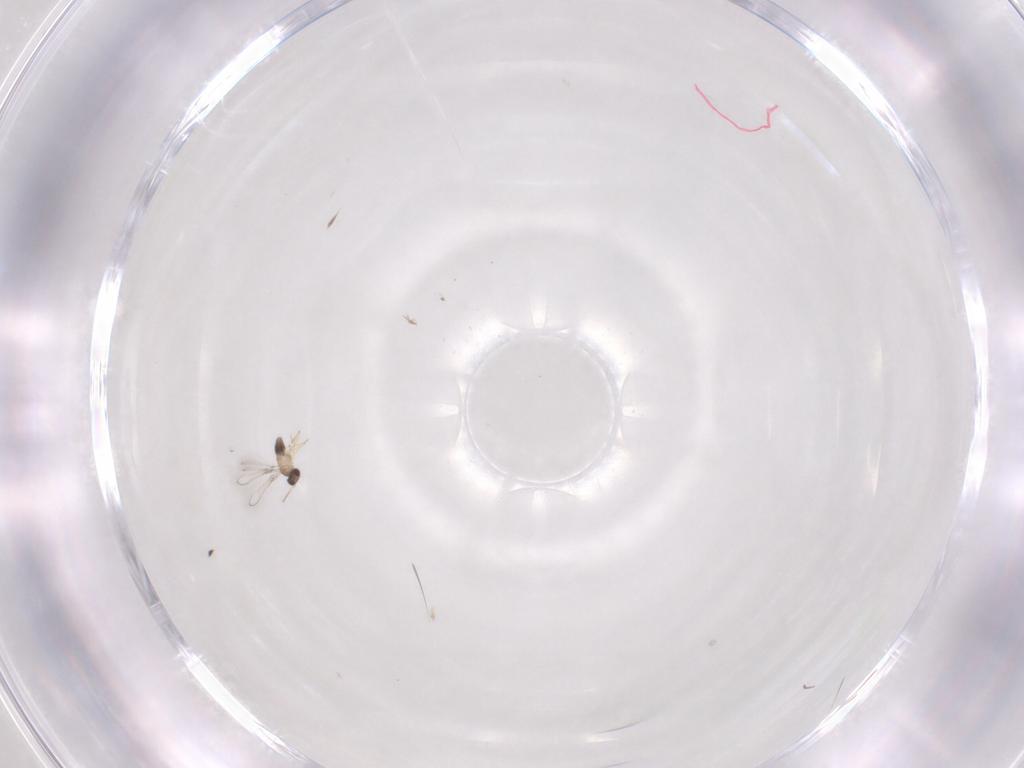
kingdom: Animalia
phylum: Arthropoda
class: Insecta
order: Hymenoptera
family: Mymaridae
